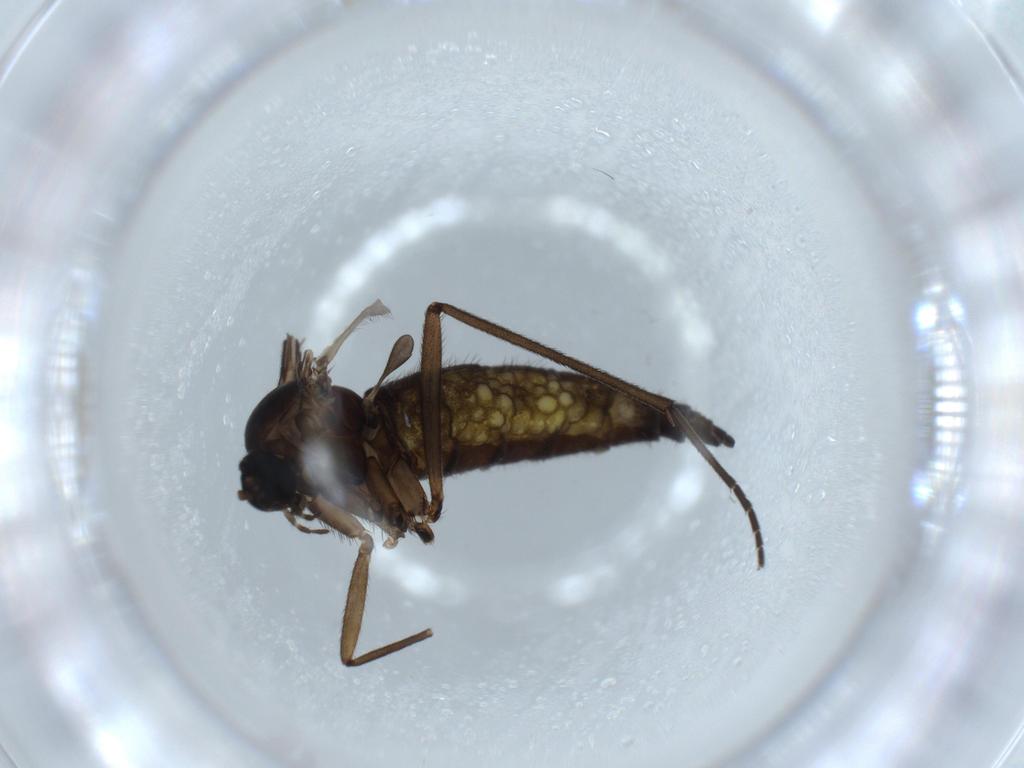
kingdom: Animalia
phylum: Arthropoda
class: Insecta
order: Diptera
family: Sciaridae
